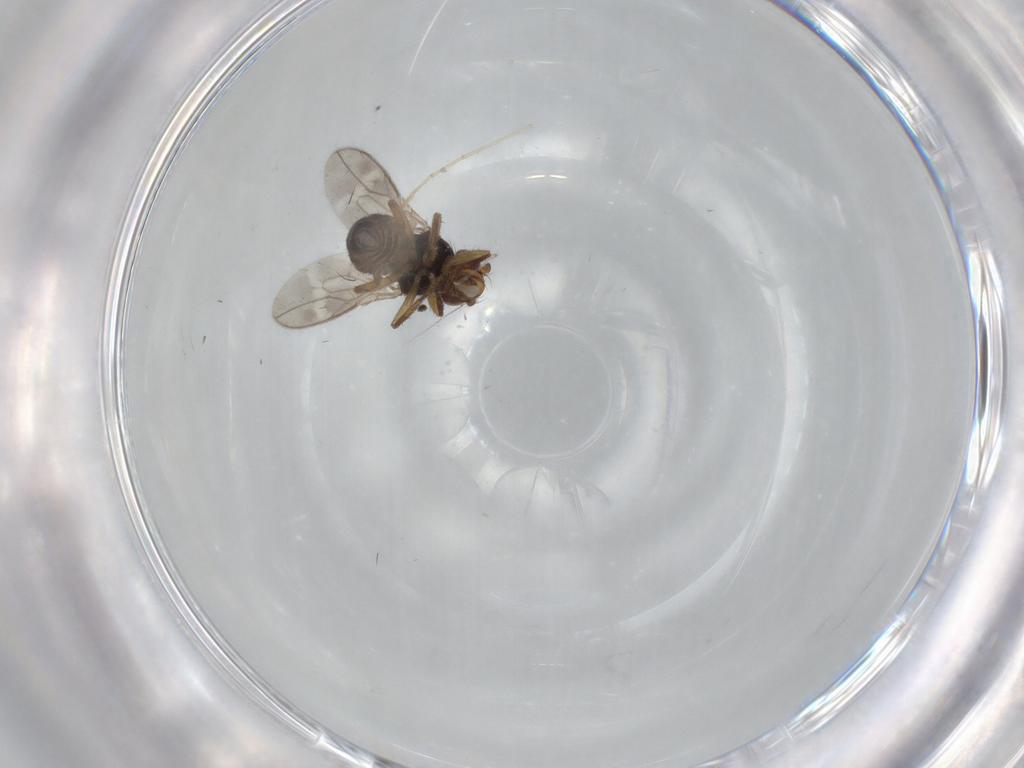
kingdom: Animalia
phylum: Arthropoda
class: Insecta
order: Diptera
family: Sphaeroceridae
